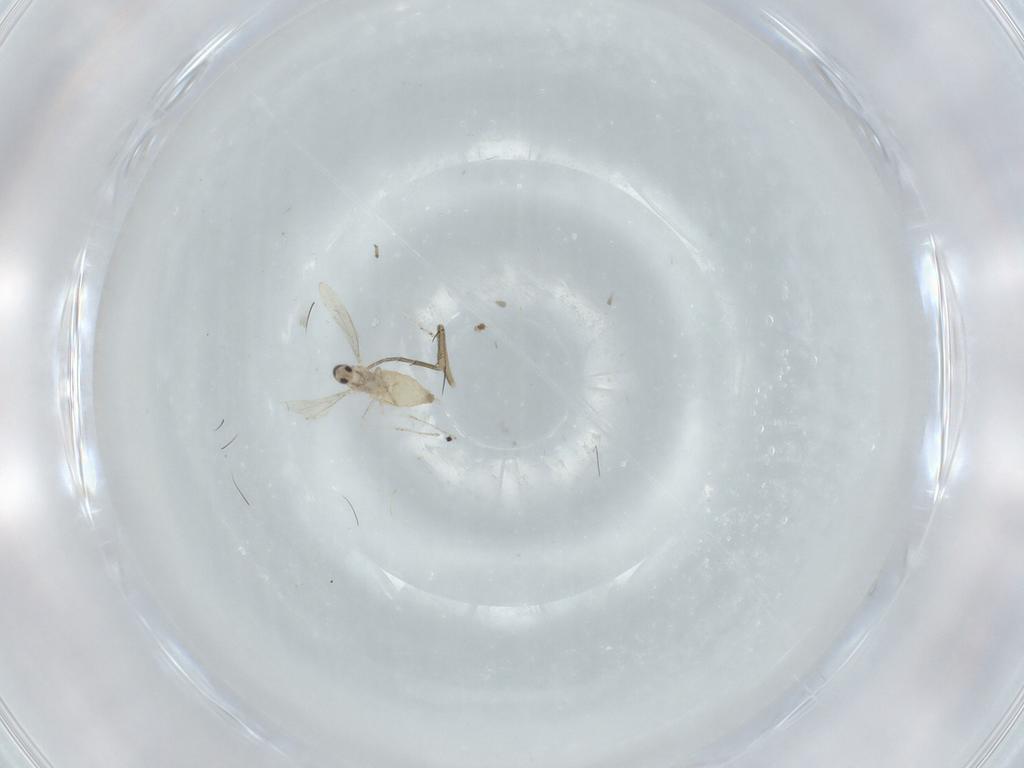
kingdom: Animalia
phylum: Arthropoda
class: Insecta
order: Diptera
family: Cecidomyiidae
